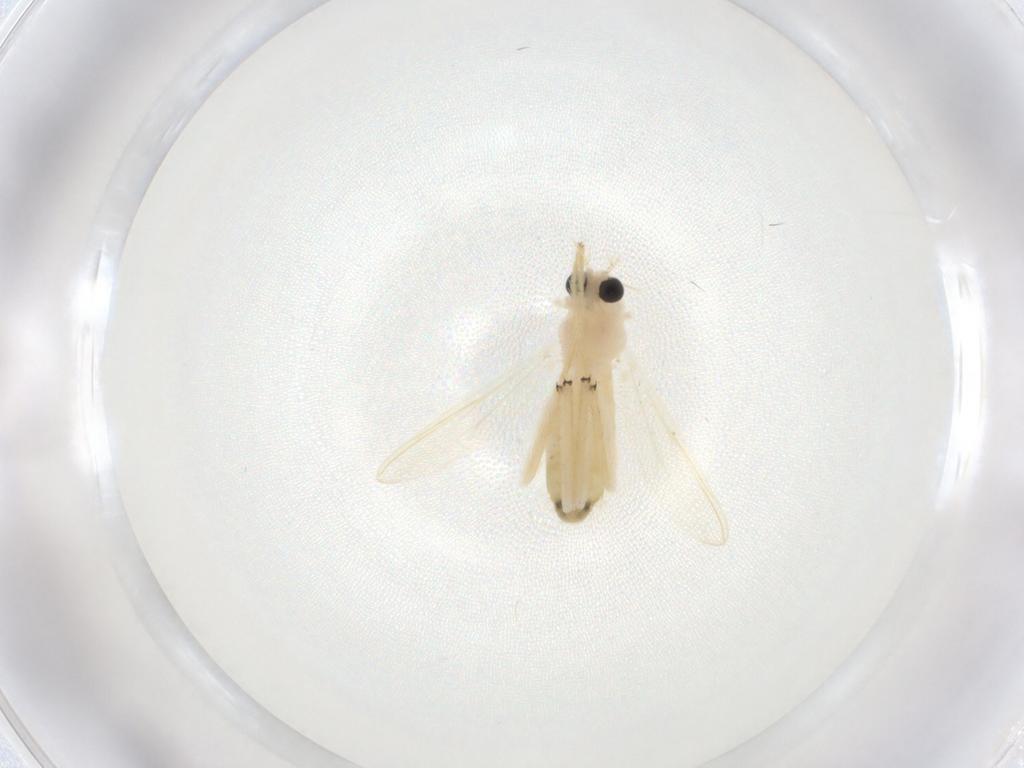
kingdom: Animalia
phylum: Arthropoda
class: Insecta
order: Diptera
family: Chironomidae
